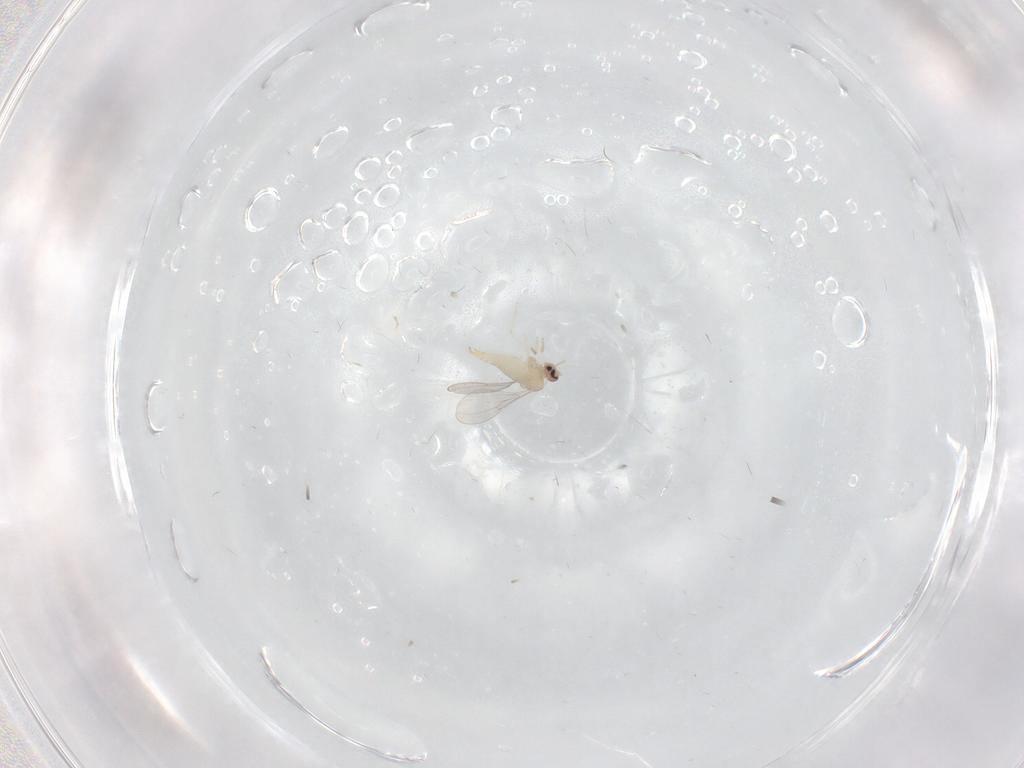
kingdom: Animalia
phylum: Arthropoda
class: Insecta
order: Diptera
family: Cecidomyiidae
